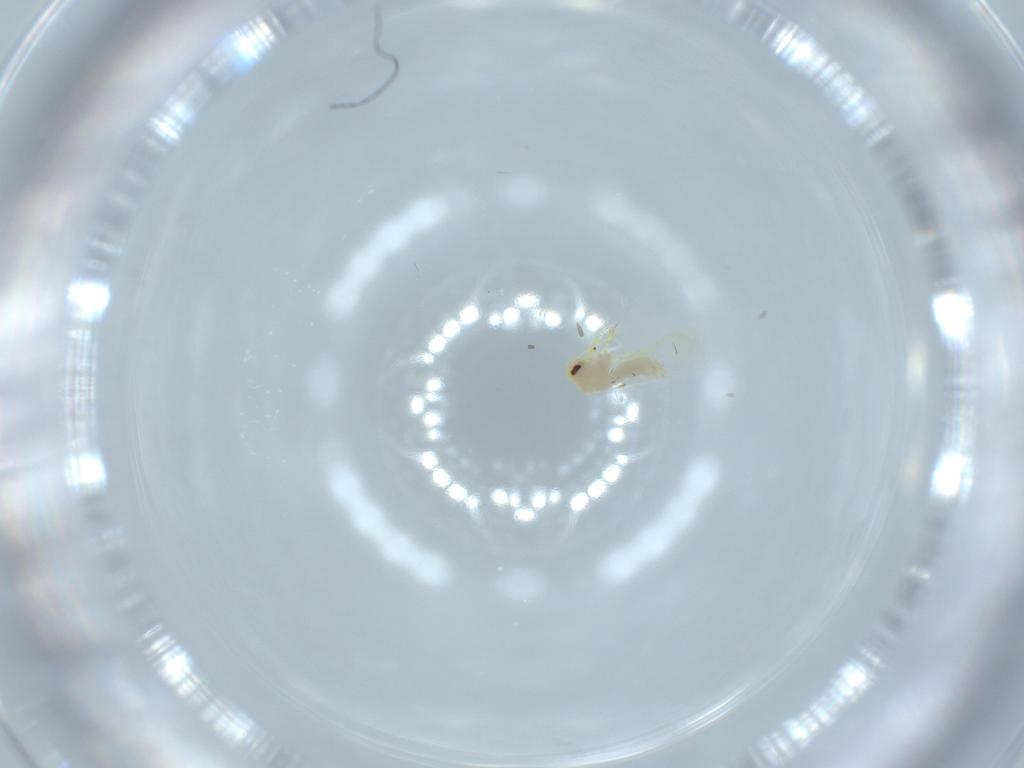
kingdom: Animalia
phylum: Arthropoda
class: Insecta
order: Hemiptera
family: Aleyrodidae
